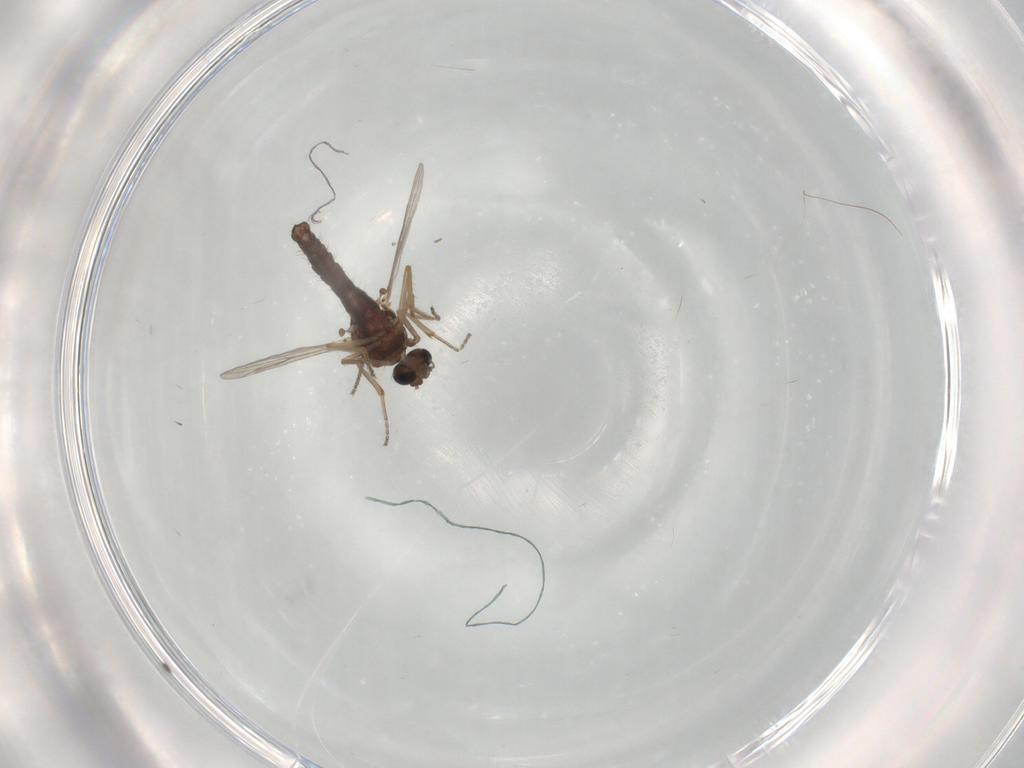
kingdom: Animalia
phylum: Arthropoda
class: Insecta
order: Diptera
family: Ceratopogonidae
